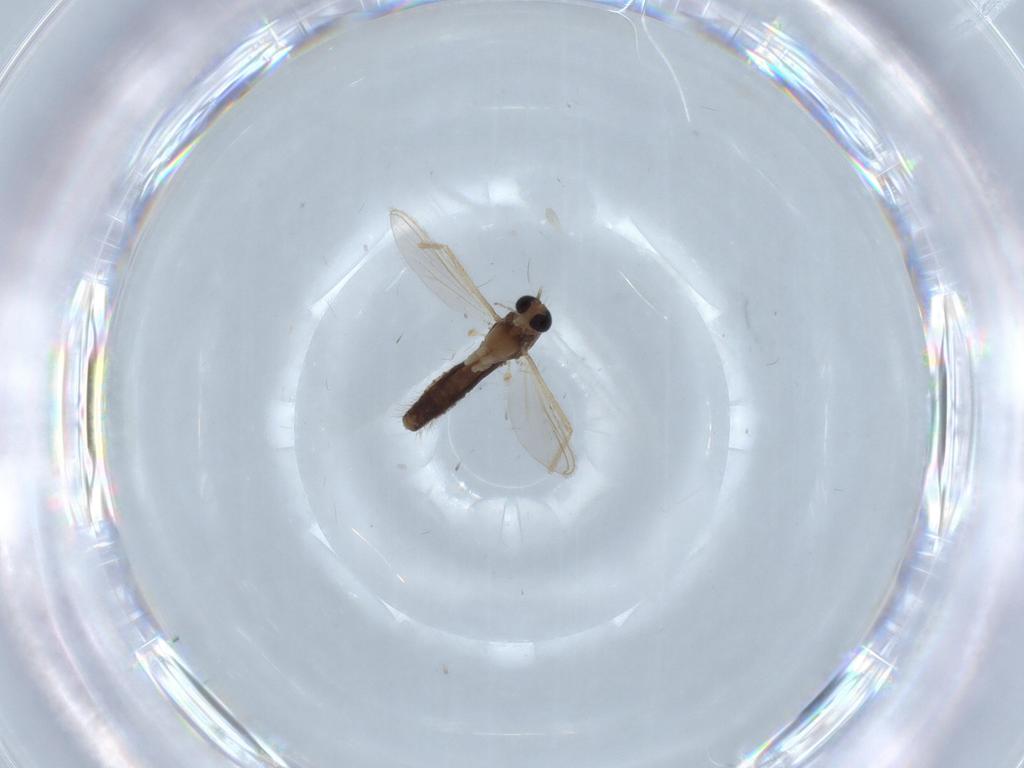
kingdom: Animalia
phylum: Arthropoda
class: Insecta
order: Diptera
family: Chironomidae
